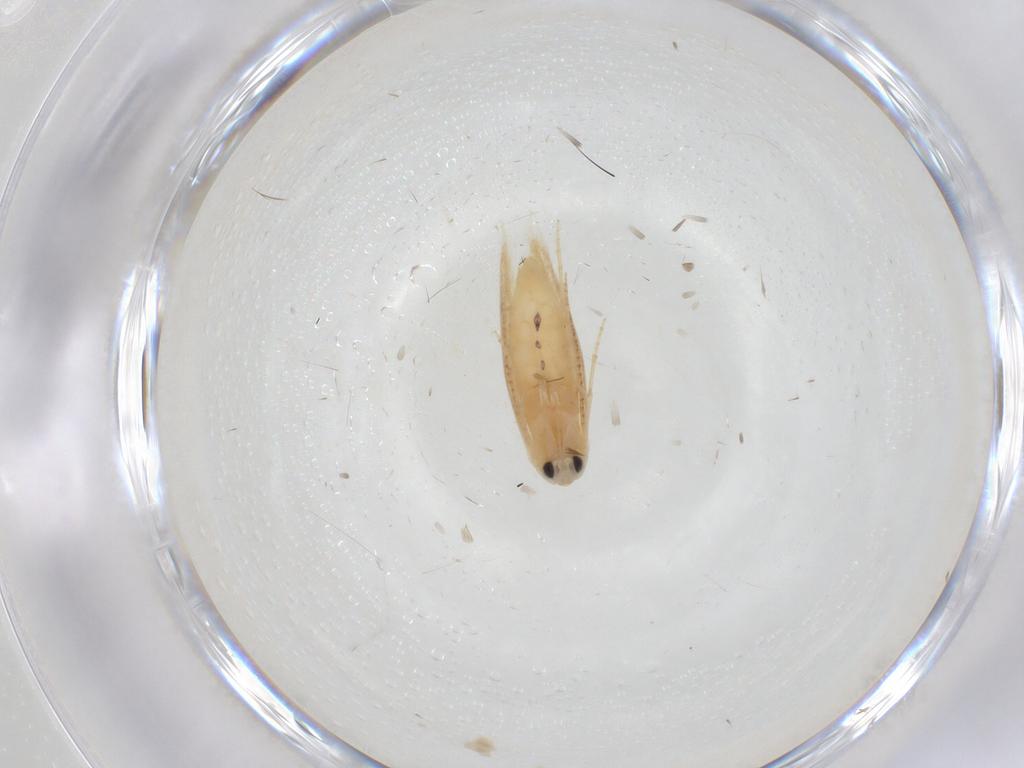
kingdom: Animalia
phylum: Arthropoda
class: Insecta
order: Lepidoptera
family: Depressariidae
